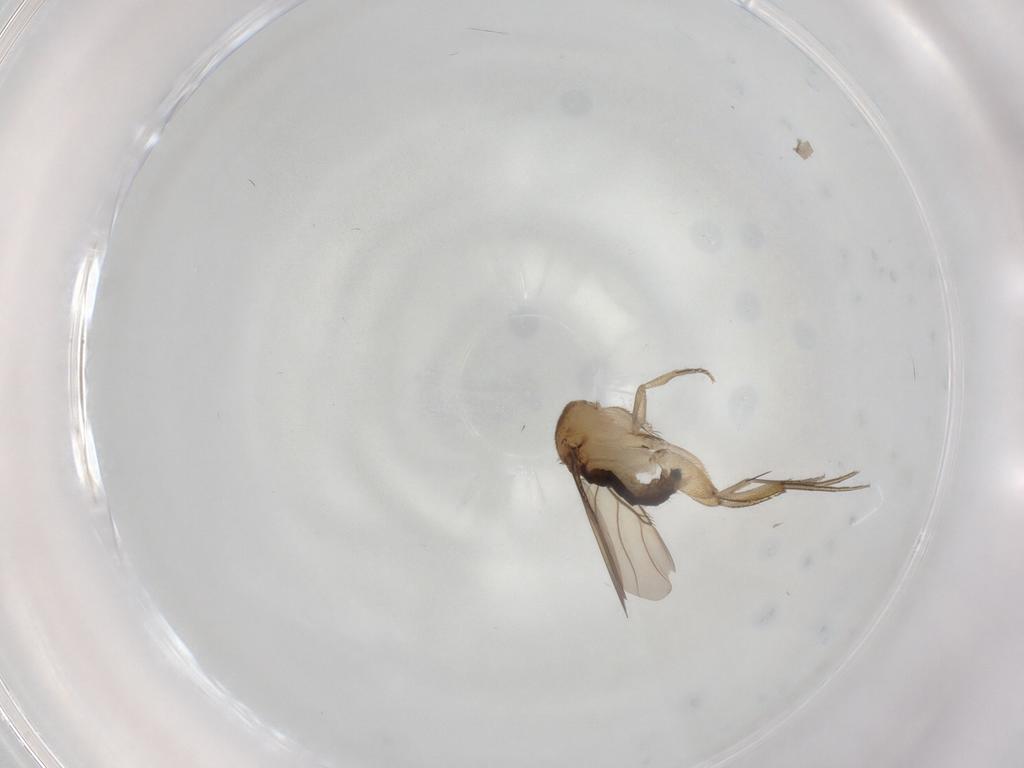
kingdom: Animalia
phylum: Arthropoda
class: Insecta
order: Diptera
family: Phoridae
